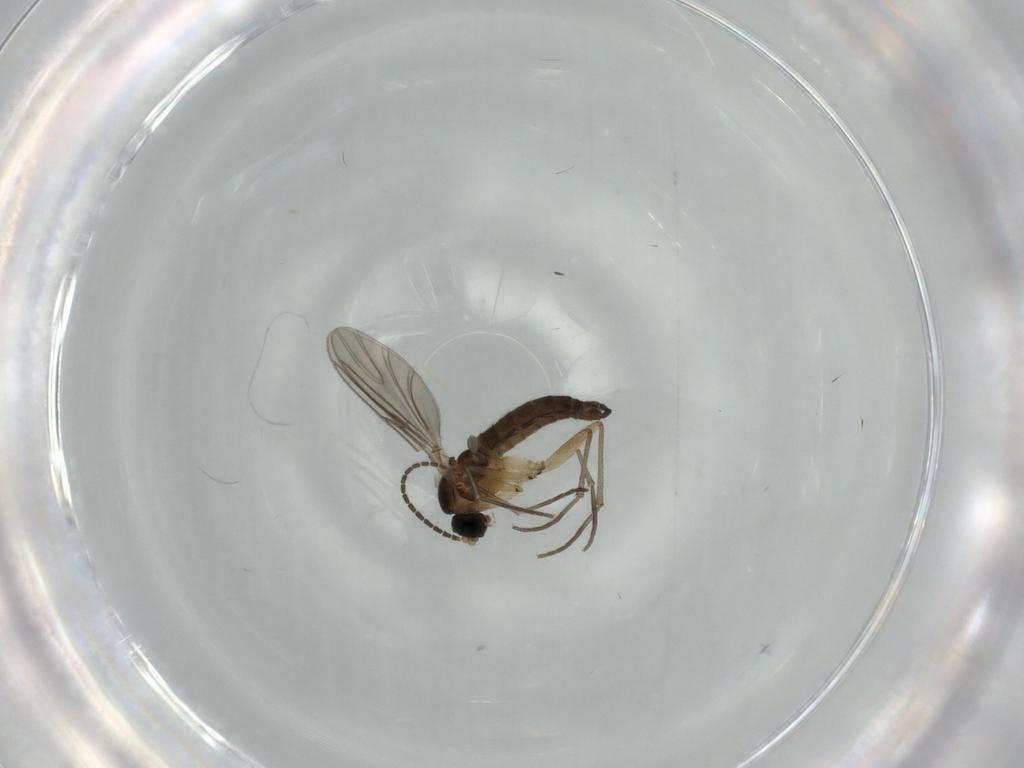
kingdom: Animalia
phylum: Arthropoda
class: Insecta
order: Diptera
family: Sciaridae
